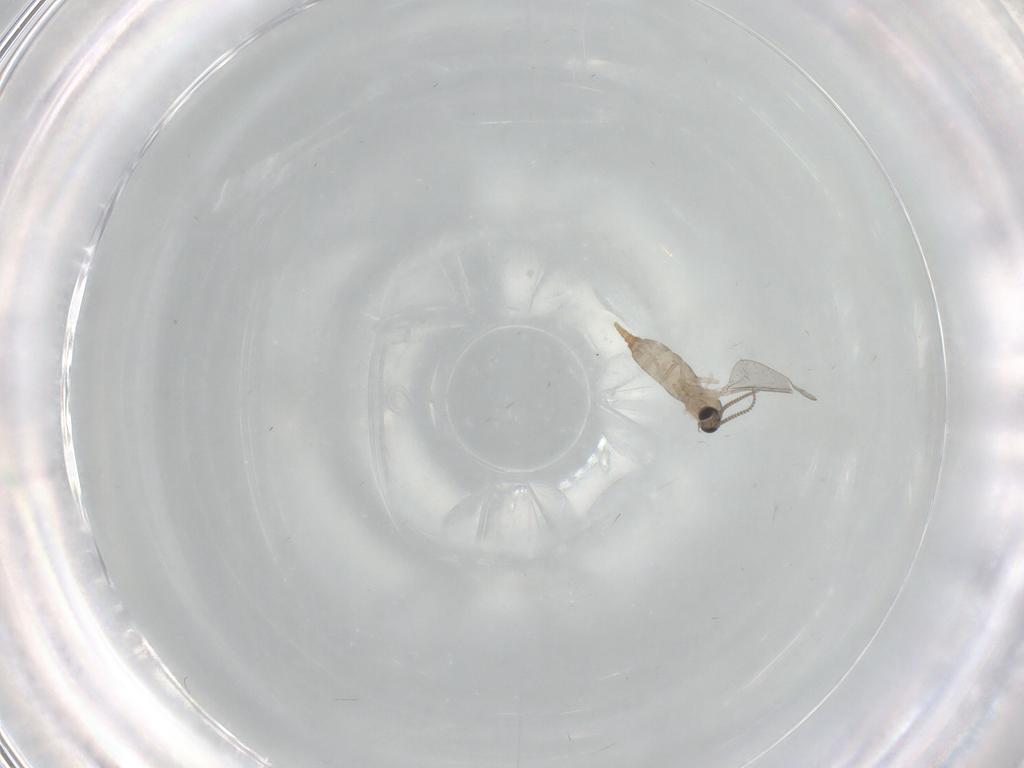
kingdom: Animalia
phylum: Arthropoda
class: Insecta
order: Diptera
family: Cecidomyiidae
